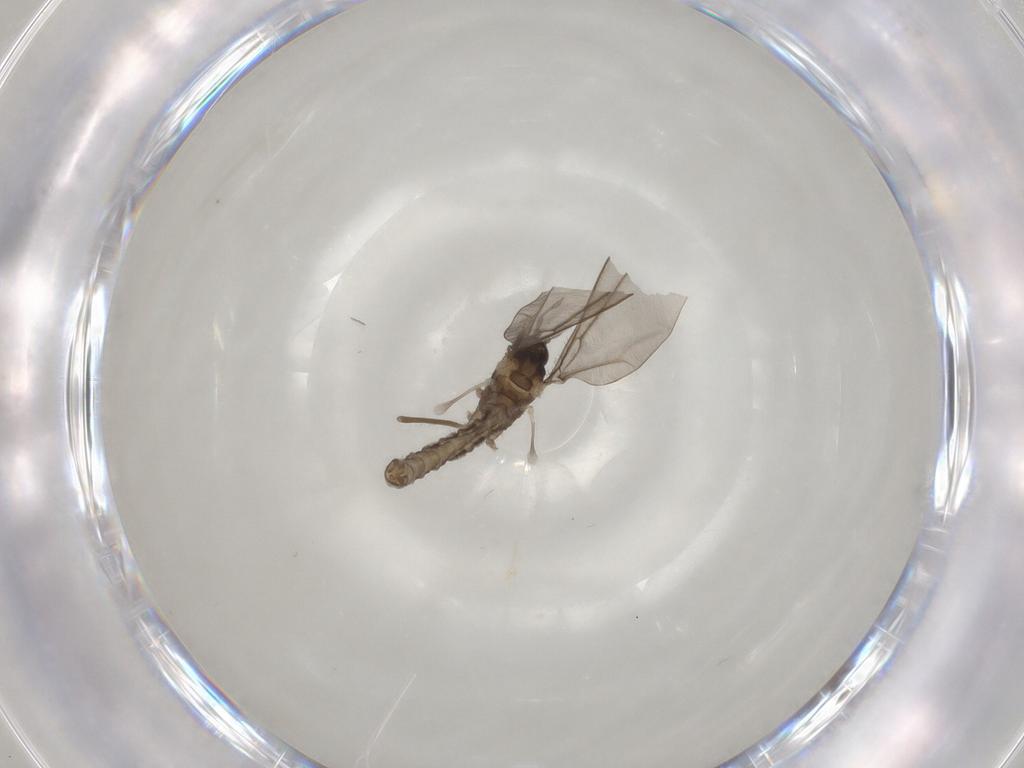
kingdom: Animalia
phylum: Arthropoda
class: Insecta
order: Diptera
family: Cecidomyiidae
